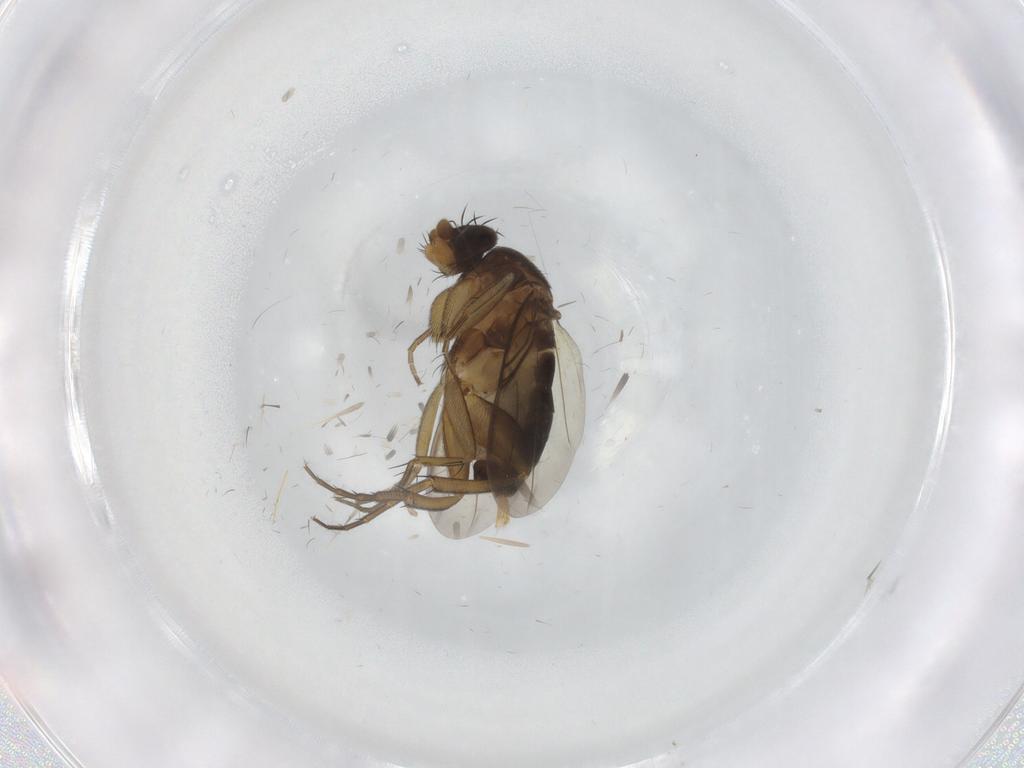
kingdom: Animalia
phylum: Arthropoda
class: Insecta
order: Diptera
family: Phoridae
